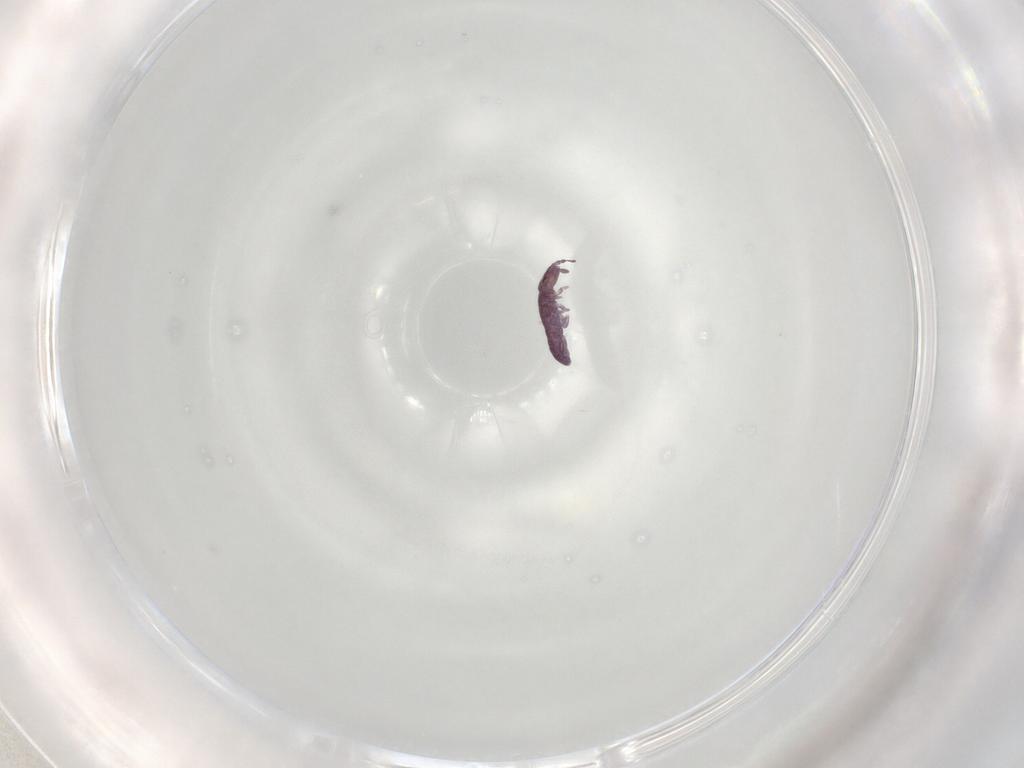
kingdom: Animalia
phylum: Arthropoda
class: Collembola
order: Entomobryomorpha
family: Isotomidae
